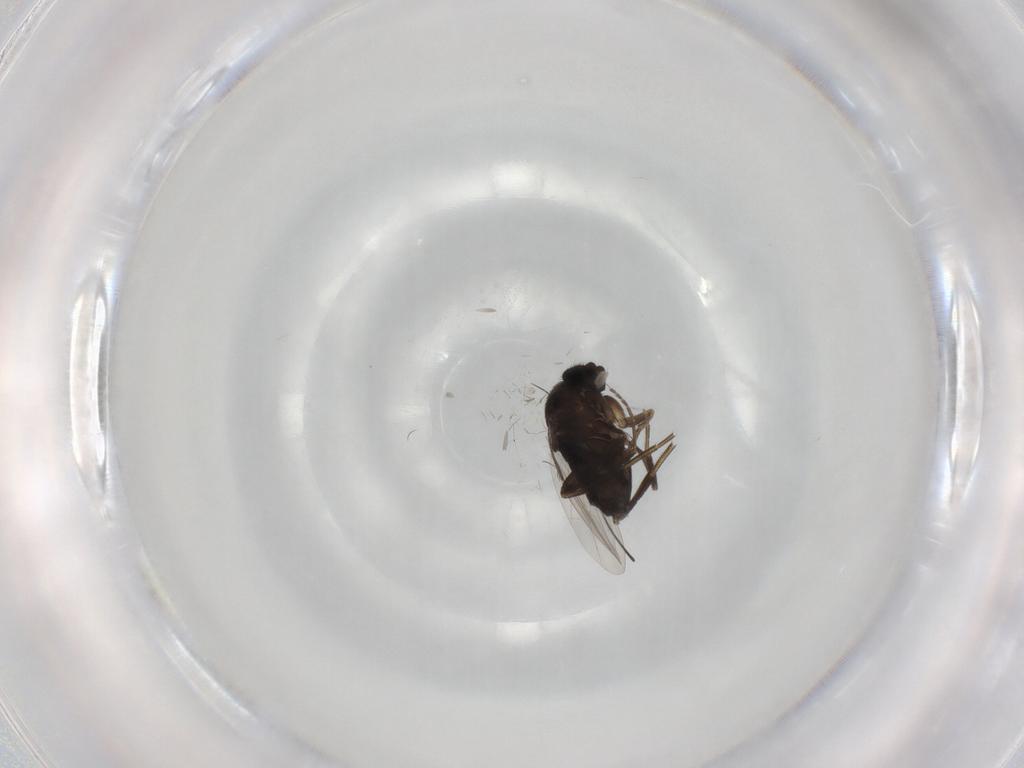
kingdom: Animalia
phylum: Arthropoda
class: Insecta
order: Diptera
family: Phoridae
